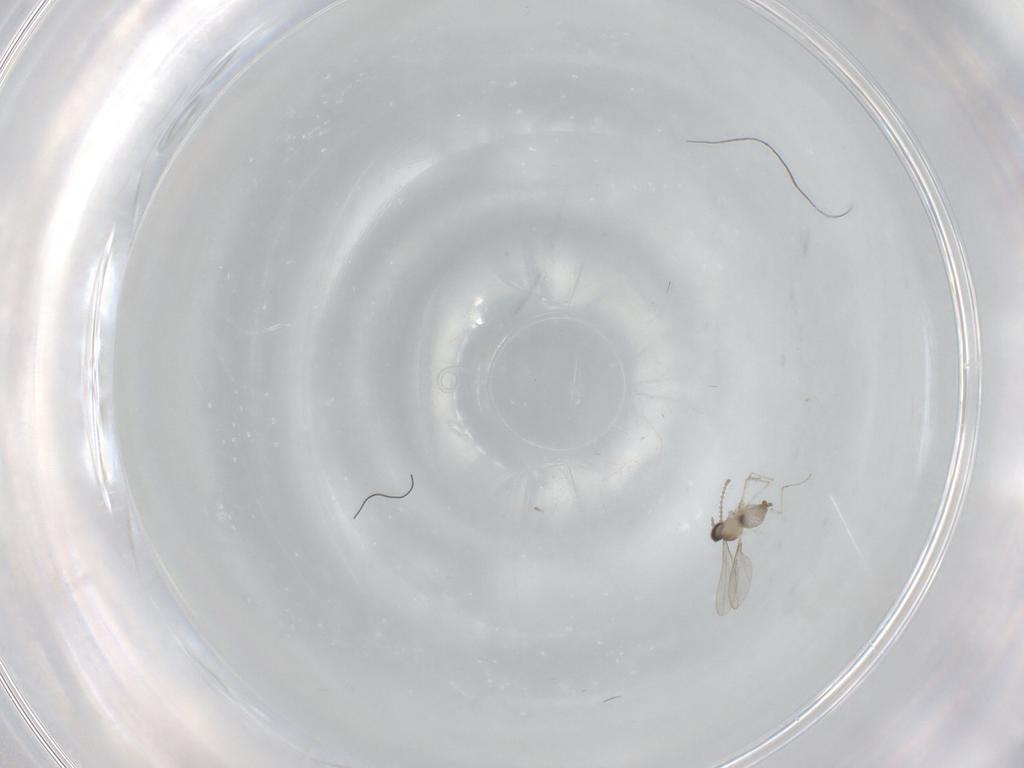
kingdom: Animalia
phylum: Arthropoda
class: Insecta
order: Diptera
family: Cecidomyiidae
